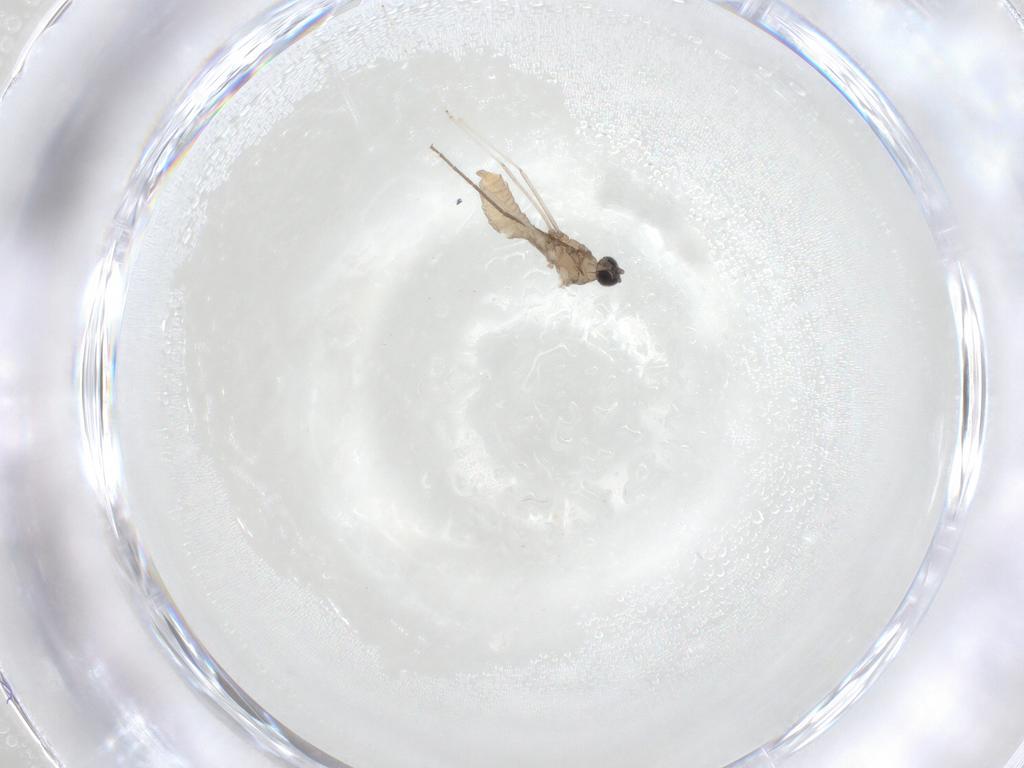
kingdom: Animalia
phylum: Arthropoda
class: Insecta
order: Diptera
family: Cecidomyiidae
